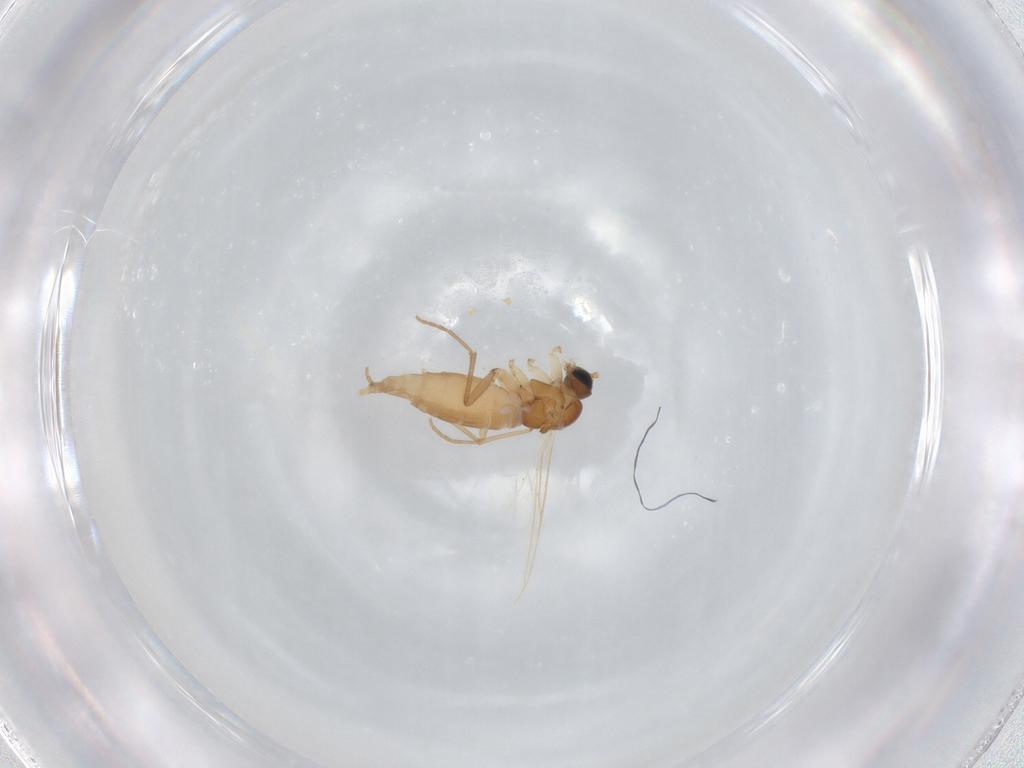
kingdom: Animalia
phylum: Arthropoda
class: Insecta
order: Diptera
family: Sciaridae
